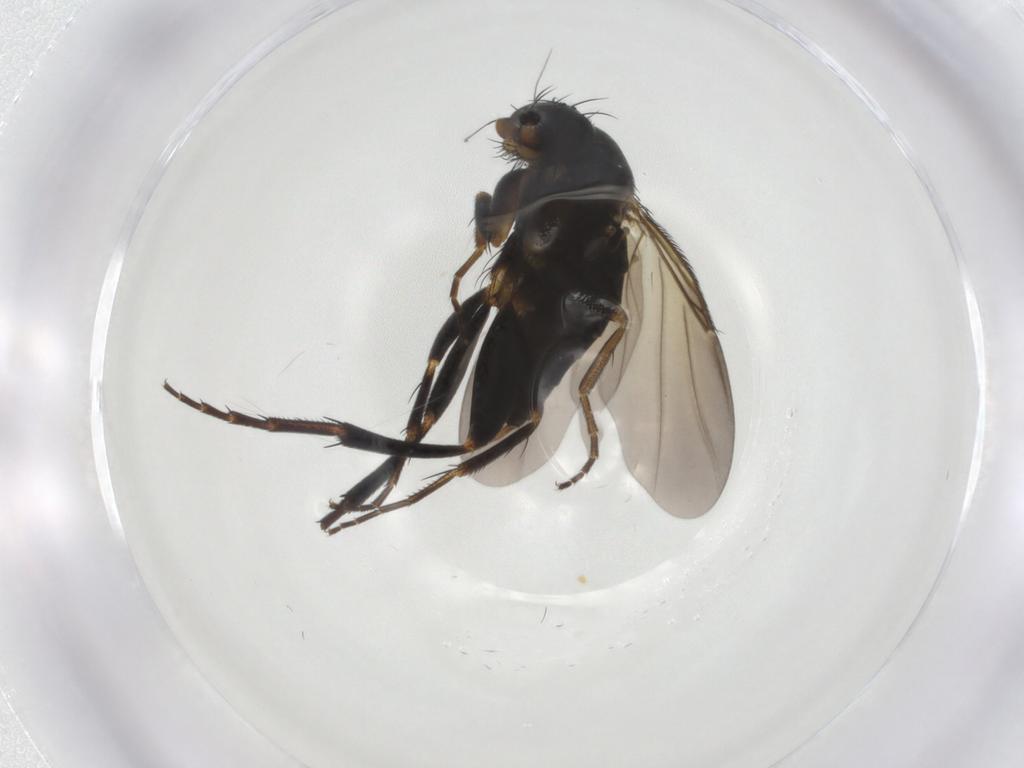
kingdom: Animalia
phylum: Arthropoda
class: Insecta
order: Diptera
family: Phoridae
